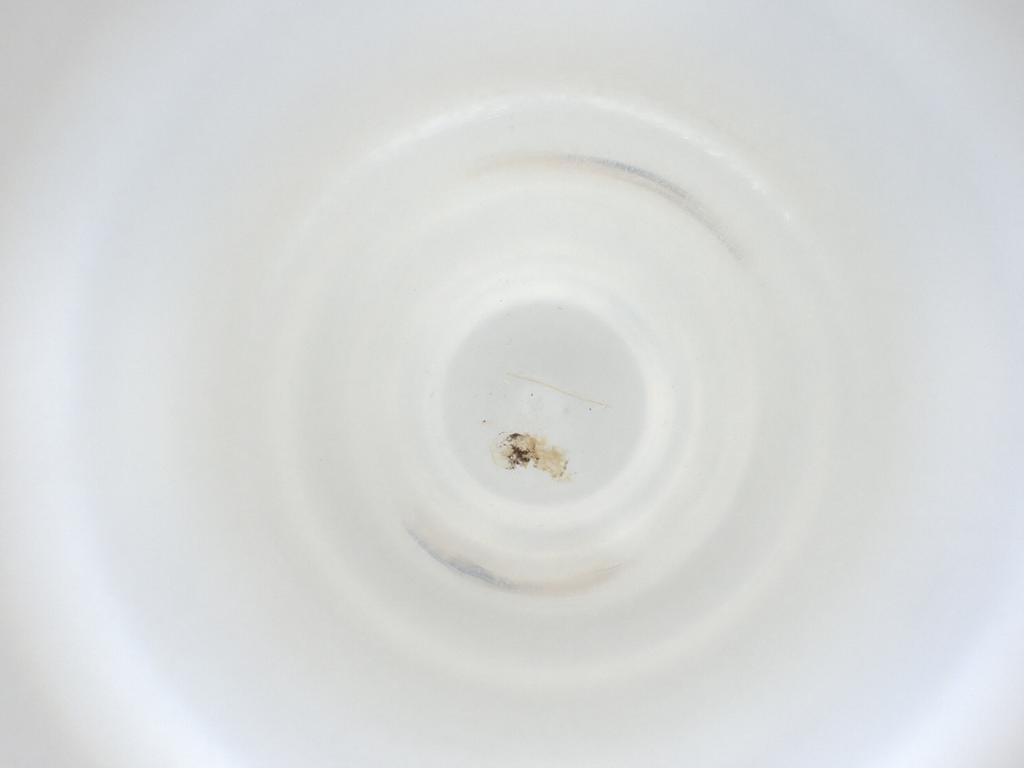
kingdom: Animalia
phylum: Arthropoda
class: Insecta
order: Diptera
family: Cecidomyiidae
